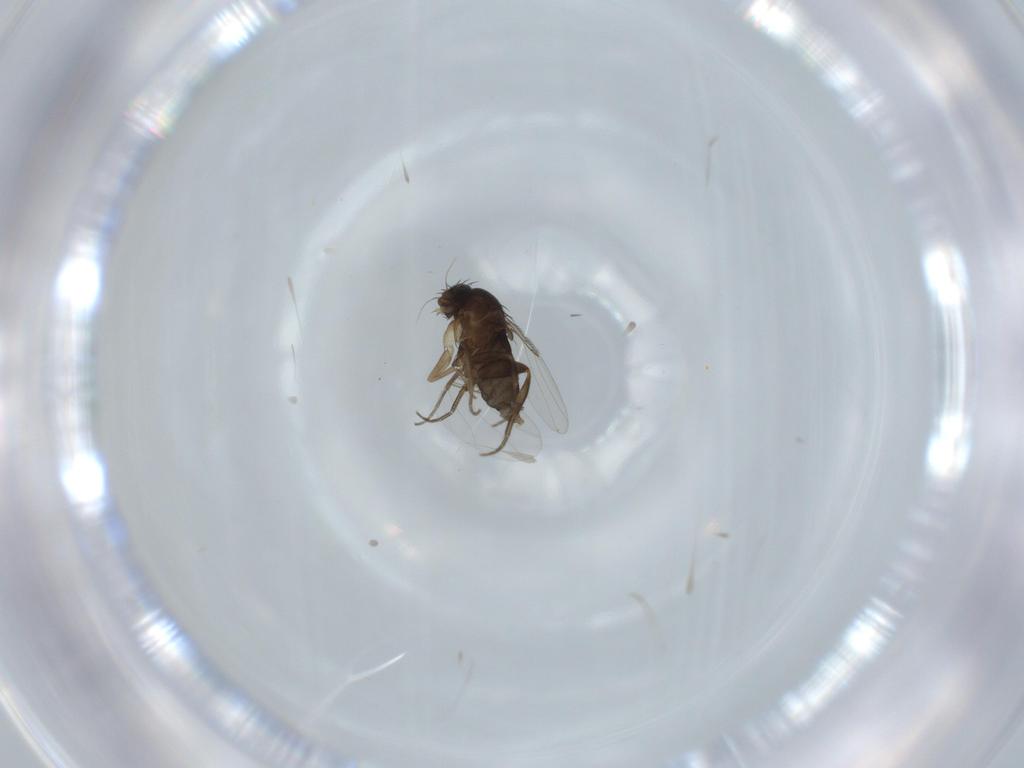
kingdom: Animalia
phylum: Arthropoda
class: Insecta
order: Diptera
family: Phoridae
